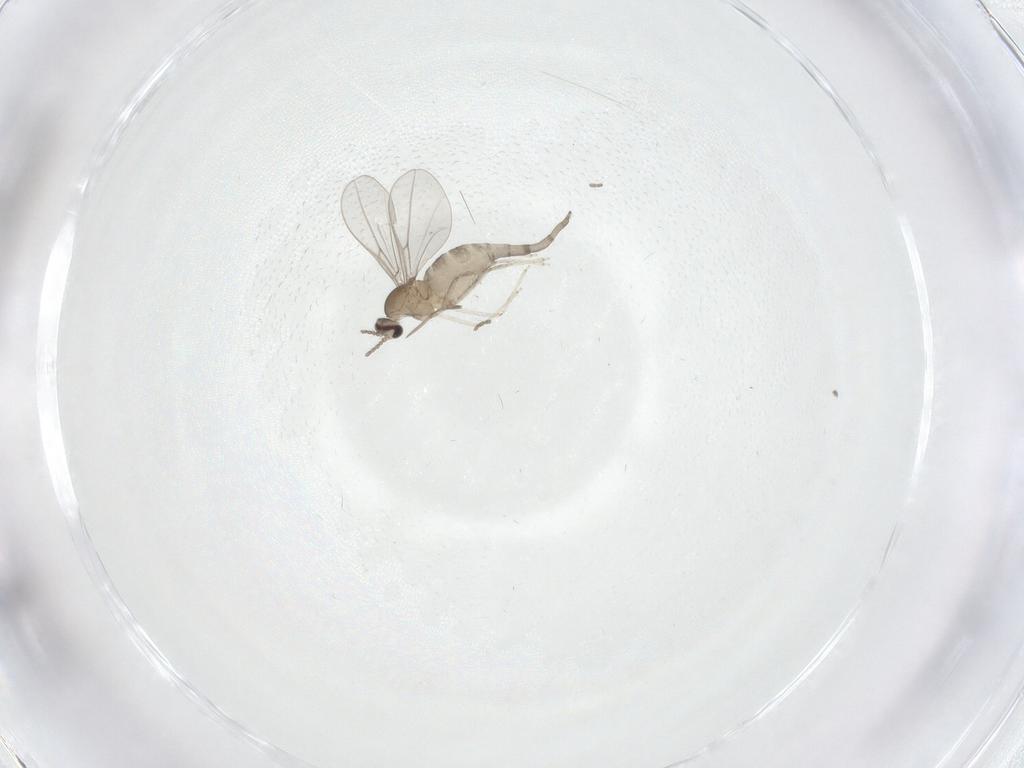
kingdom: Animalia
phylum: Arthropoda
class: Insecta
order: Diptera
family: Cecidomyiidae
